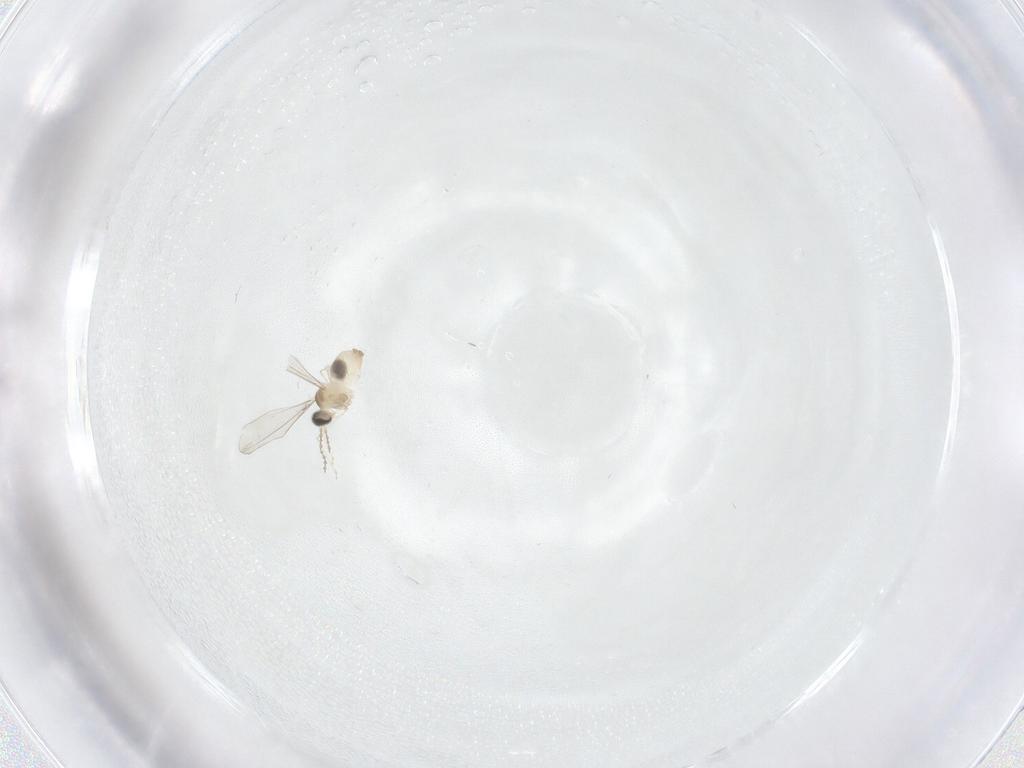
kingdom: Animalia
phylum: Arthropoda
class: Insecta
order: Diptera
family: Cecidomyiidae
